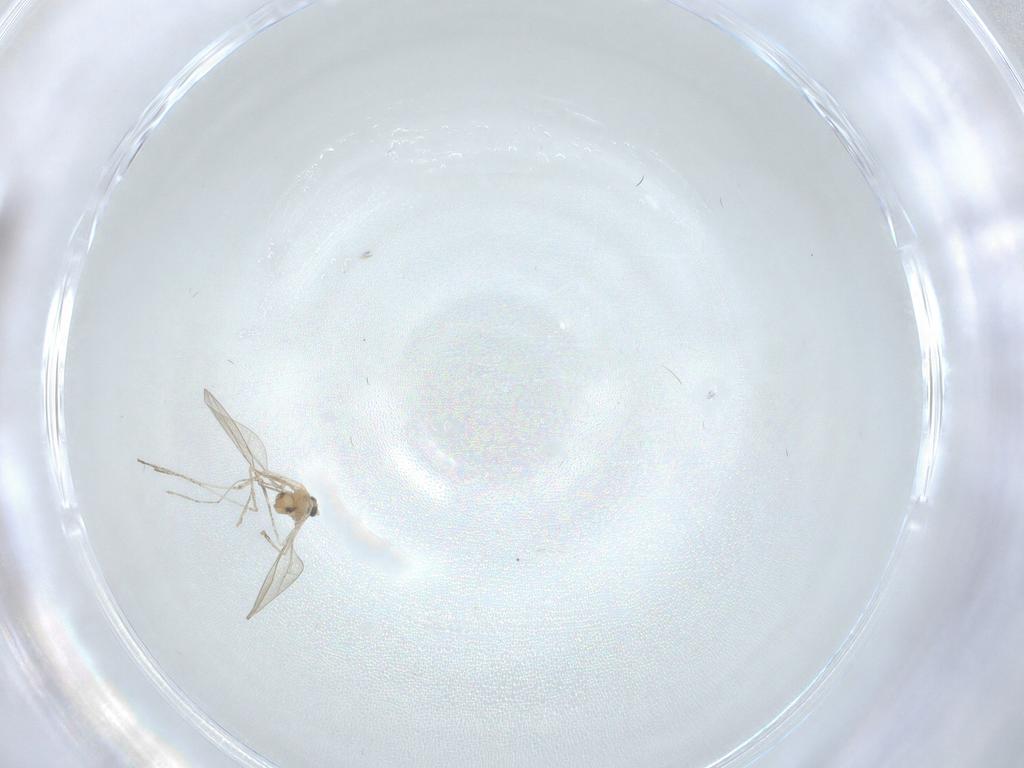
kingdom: Animalia
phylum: Arthropoda
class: Insecta
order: Diptera
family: Cecidomyiidae
